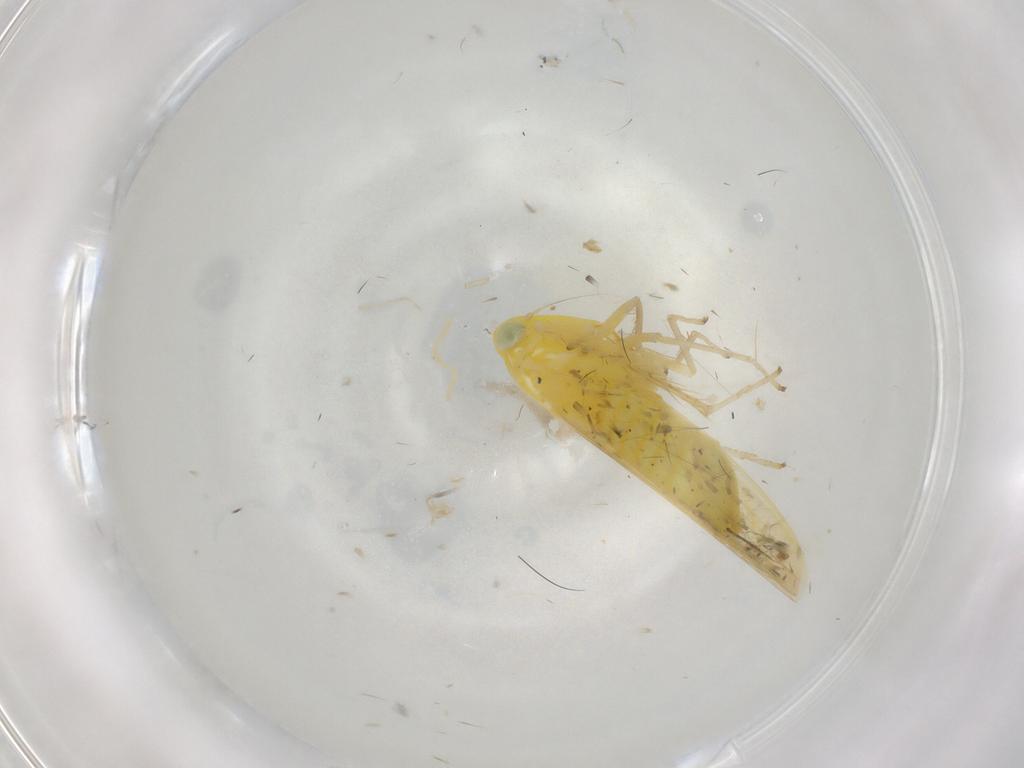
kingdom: Animalia
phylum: Arthropoda
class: Insecta
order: Hemiptera
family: Cicadellidae
